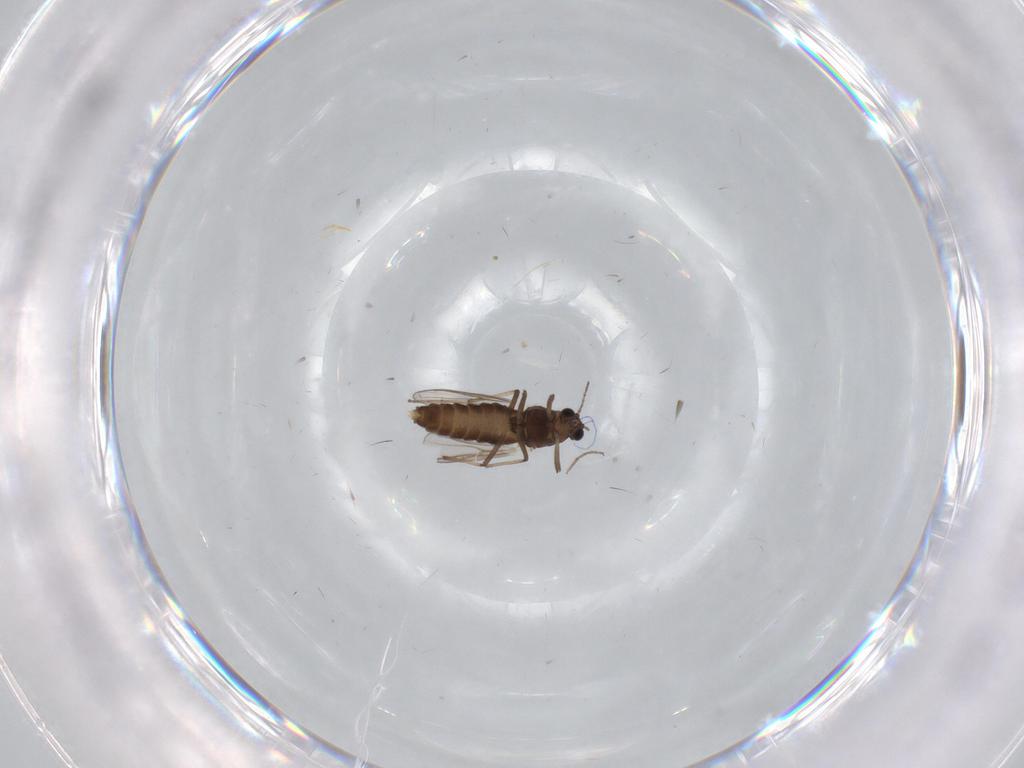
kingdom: Animalia
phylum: Arthropoda
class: Insecta
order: Diptera
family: Chironomidae
